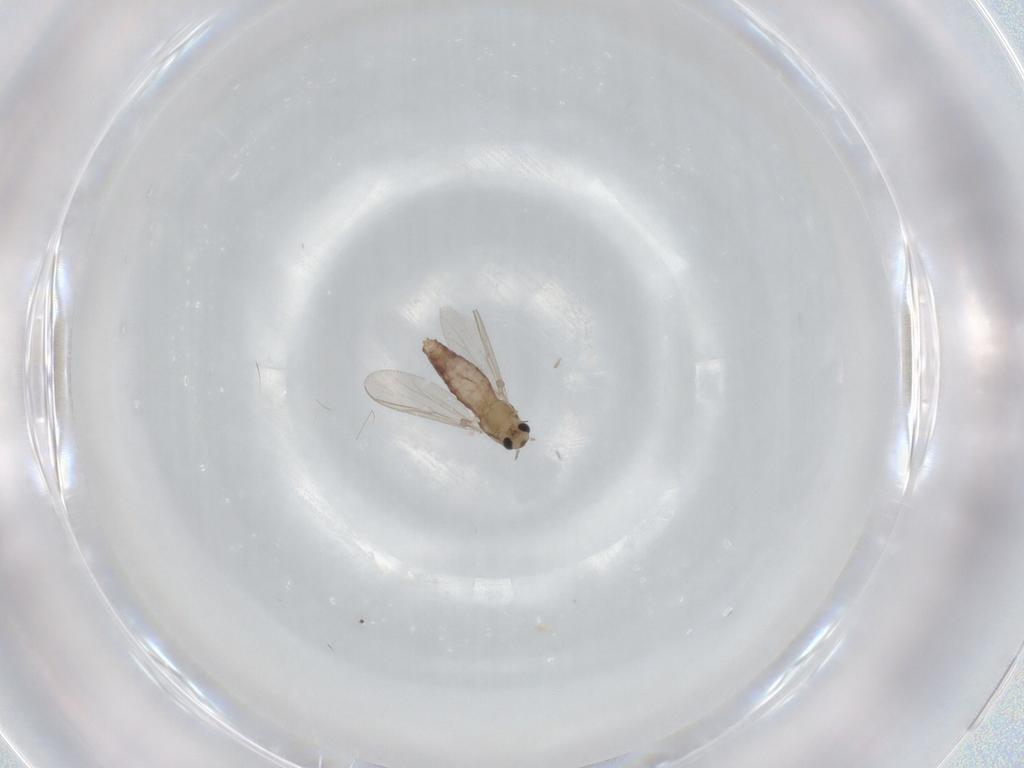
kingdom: Animalia
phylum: Arthropoda
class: Insecta
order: Diptera
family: Chironomidae
